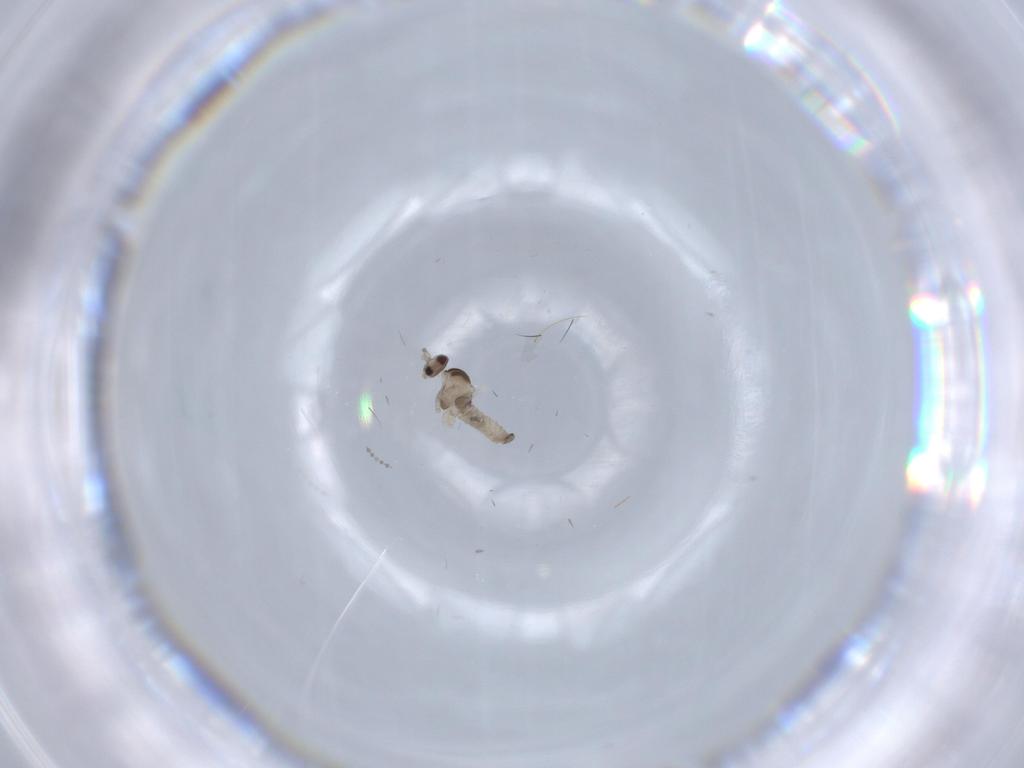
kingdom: Animalia
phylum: Arthropoda
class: Insecta
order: Diptera
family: Cecidomyiidae
